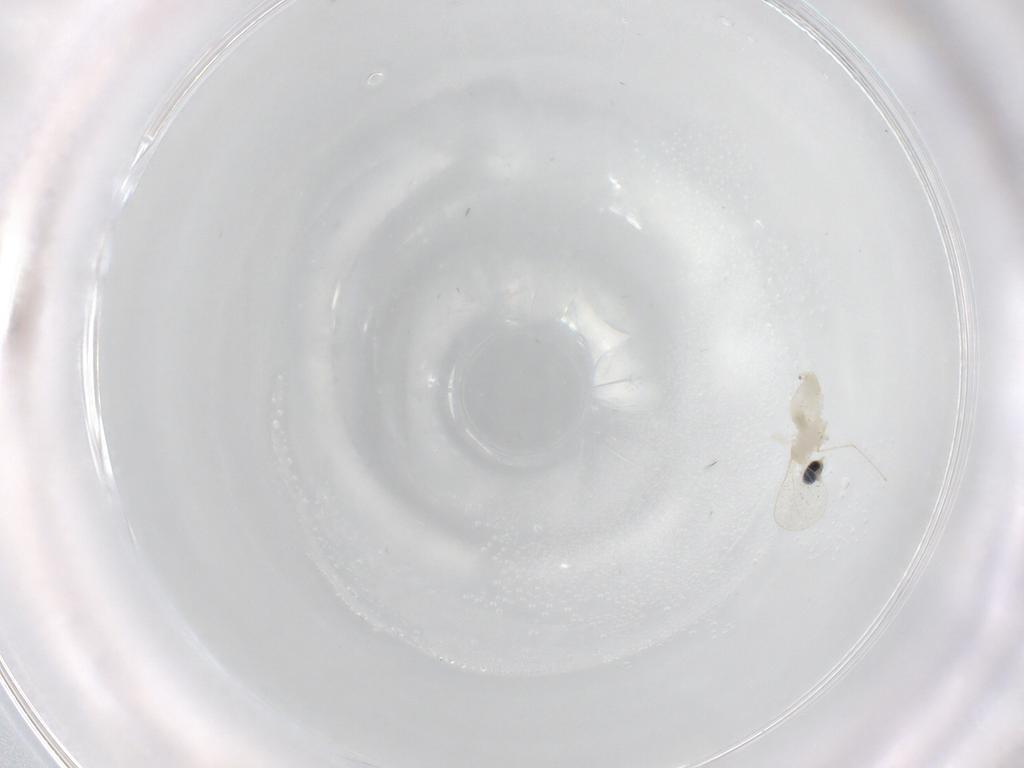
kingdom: Animalia
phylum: Arthropoda
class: Insecta
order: Diptera
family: Cecidomyiidae
